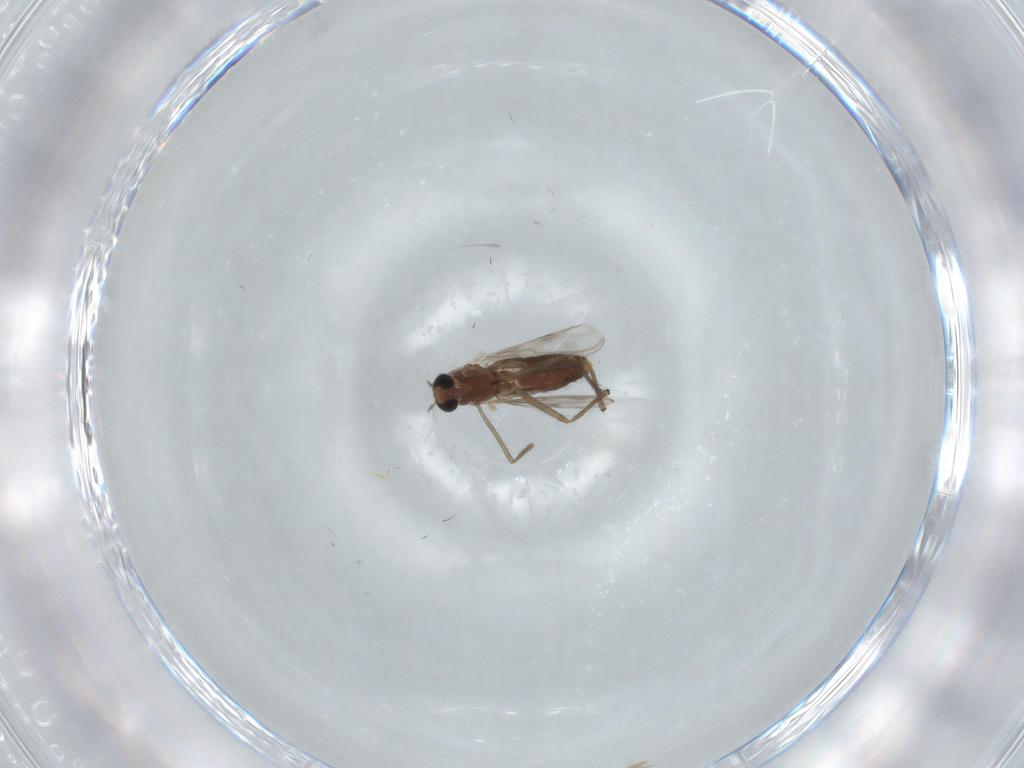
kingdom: Animalia
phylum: Arthropoda
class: Insecta
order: Diptera
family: Chironomidae
